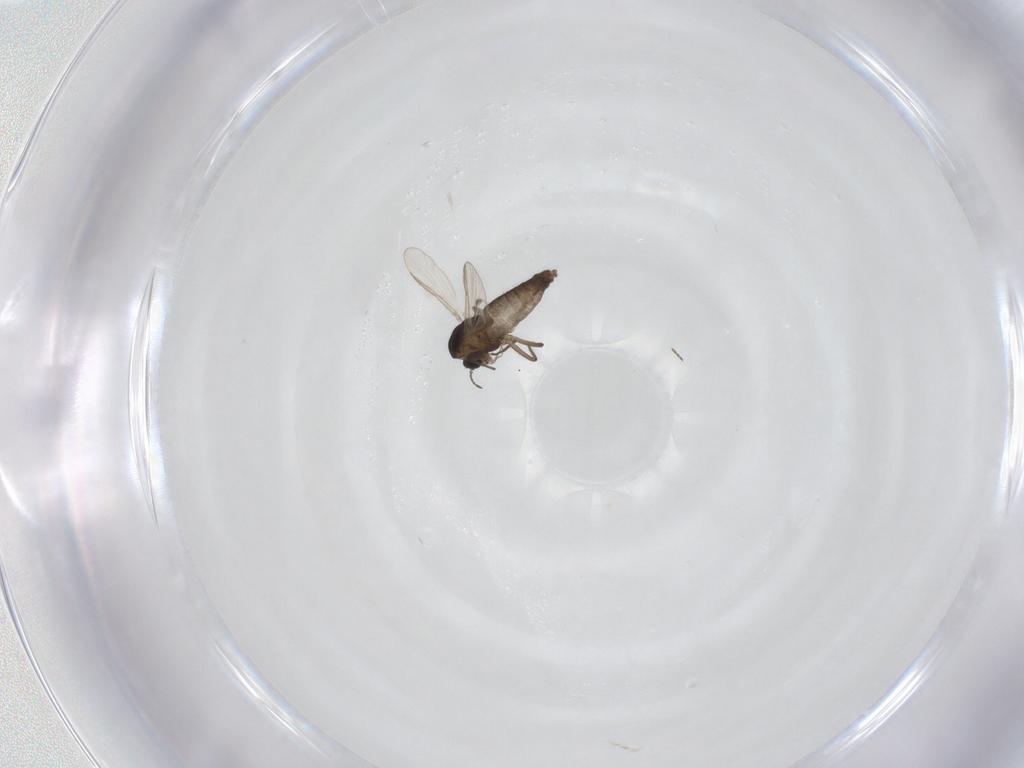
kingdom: Animalia
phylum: Arthropoda
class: Insecta
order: Diptera
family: Chironomidae
